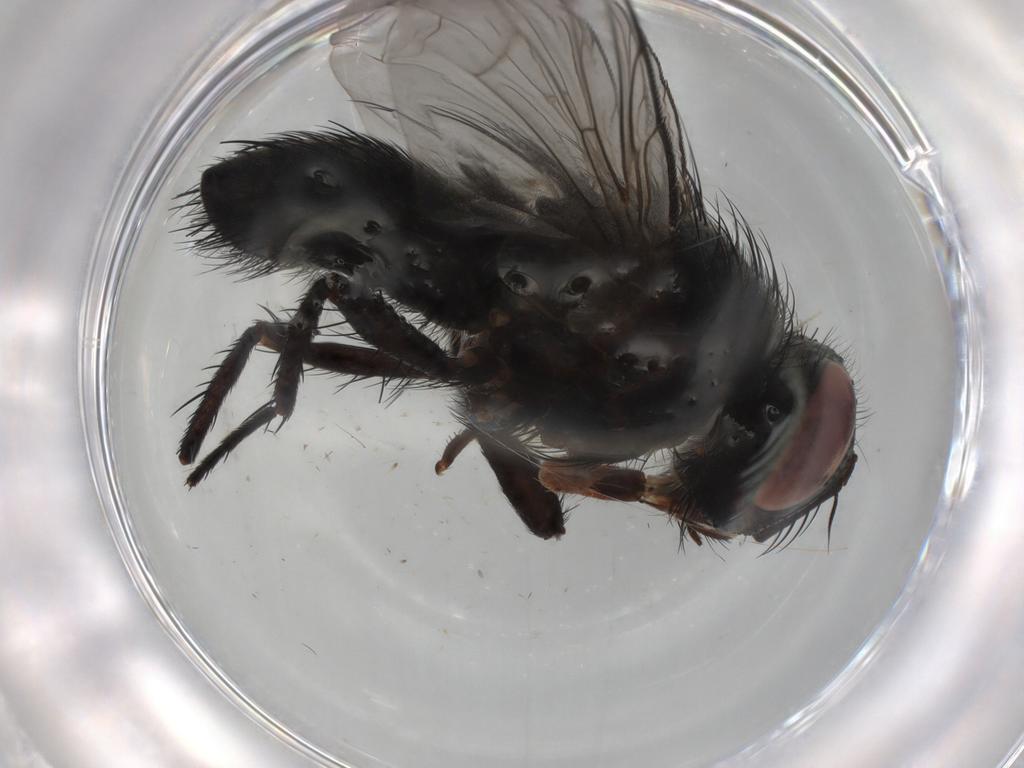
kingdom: Animalia
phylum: Arthropoda
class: Insecta
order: Diptera
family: Tachinidae
